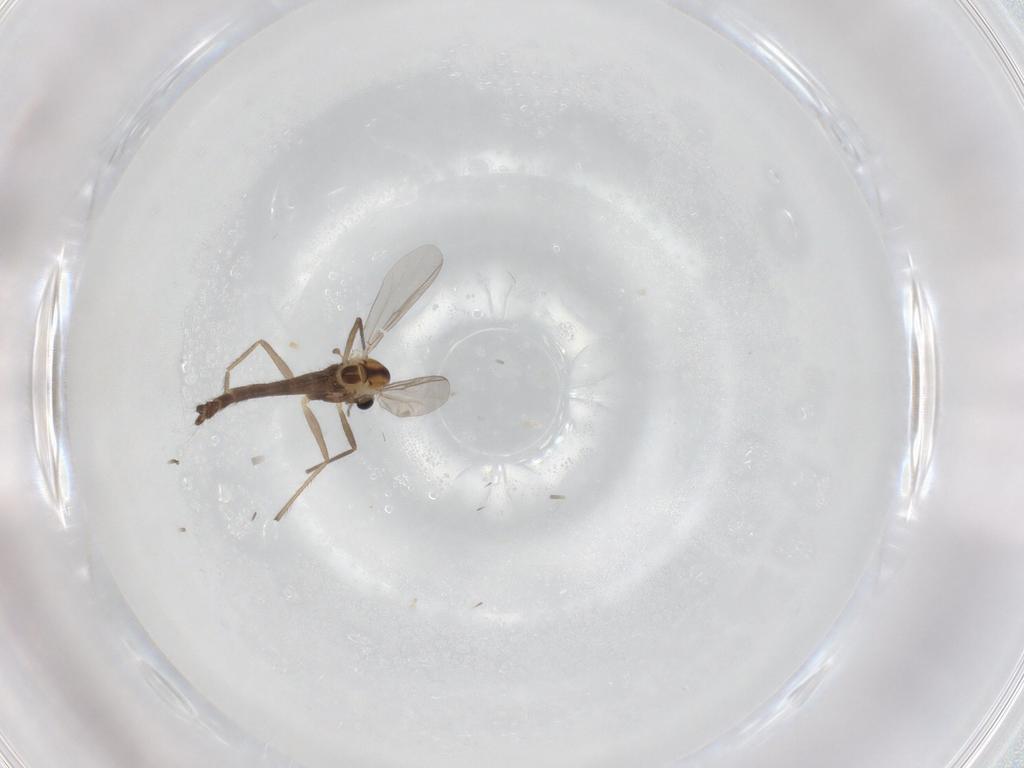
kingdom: Animalia
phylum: Arthropoda
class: Insecta
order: Diptera
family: Chironomidae
